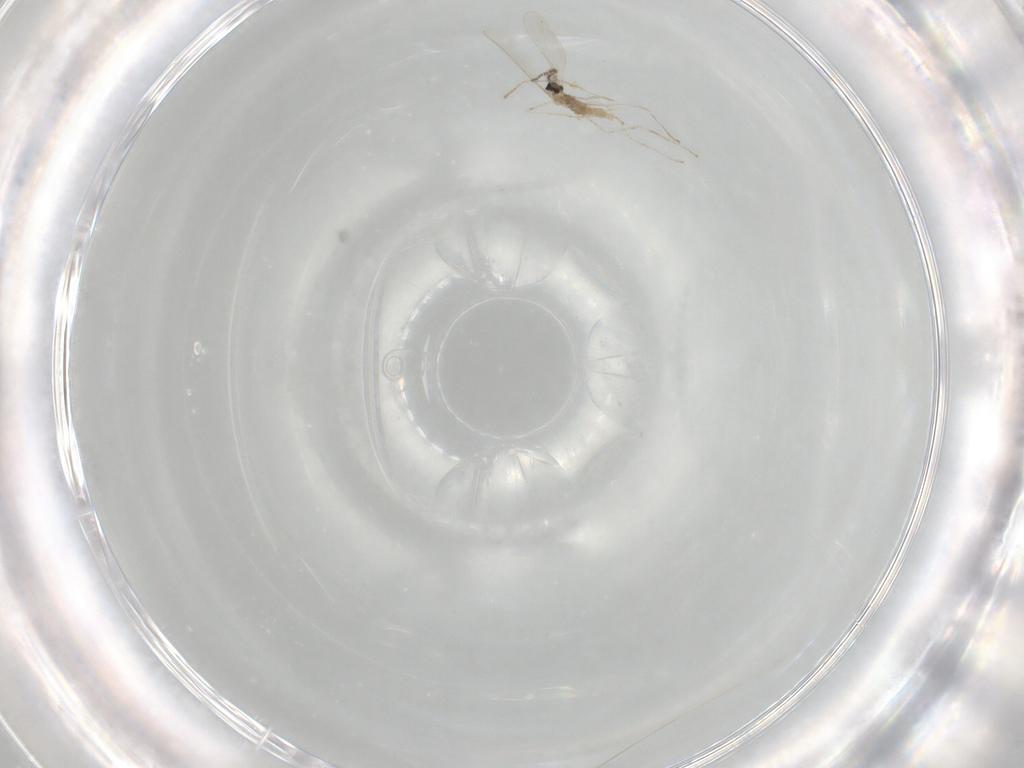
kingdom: Animalia
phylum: Arthropoda
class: Insecta
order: Diptera
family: Cecidomyiidae
